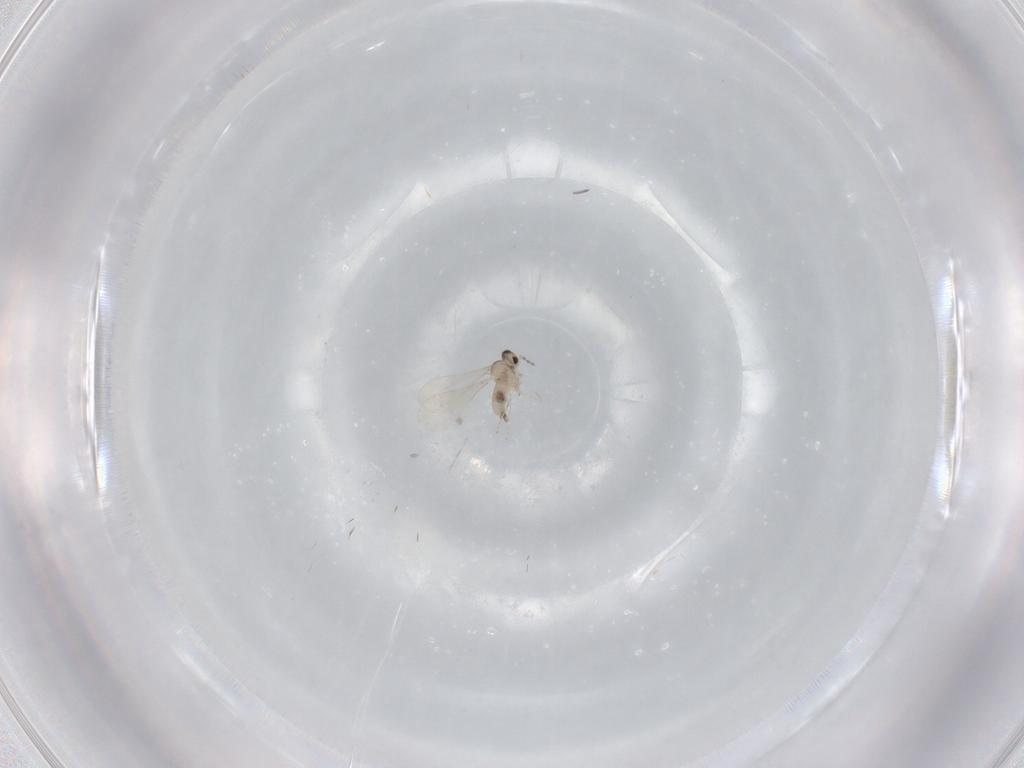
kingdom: Animalia
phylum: Arthropoda
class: Insecta
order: Diptera
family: Cecidomyiidae
